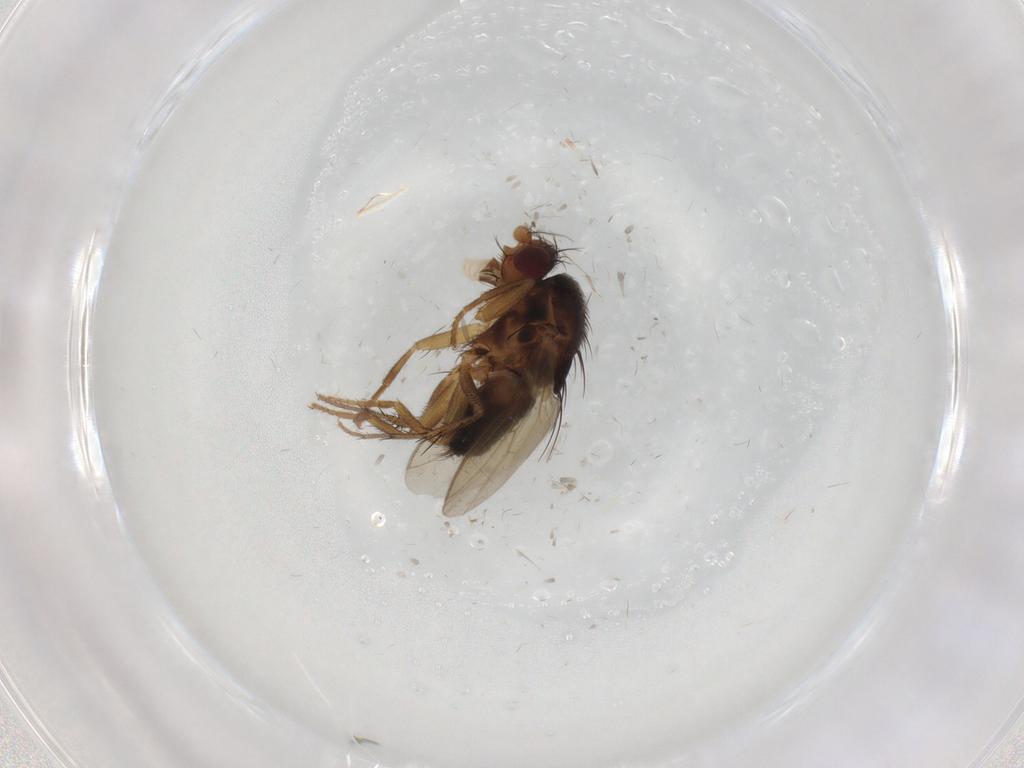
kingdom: Animalia
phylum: Arthropoda
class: Insecta
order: Diptera
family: Sphaeroceridae
